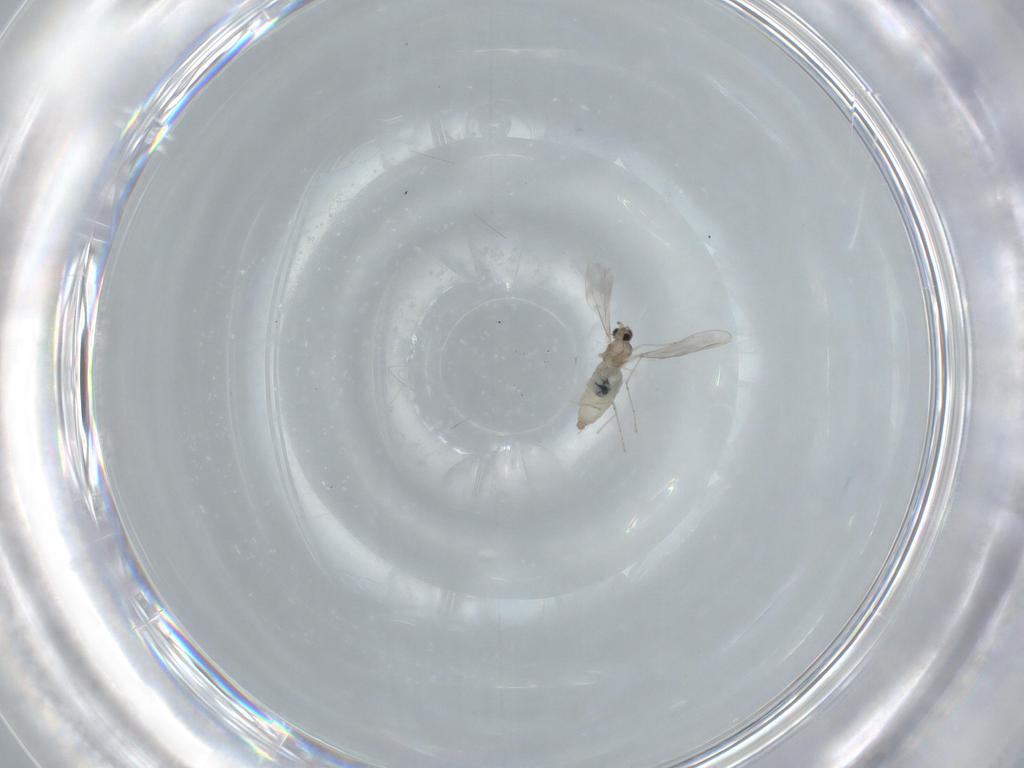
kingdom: Animalia
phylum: Arthropoda
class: Insecta
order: Diptera
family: Cecidomyiidae
